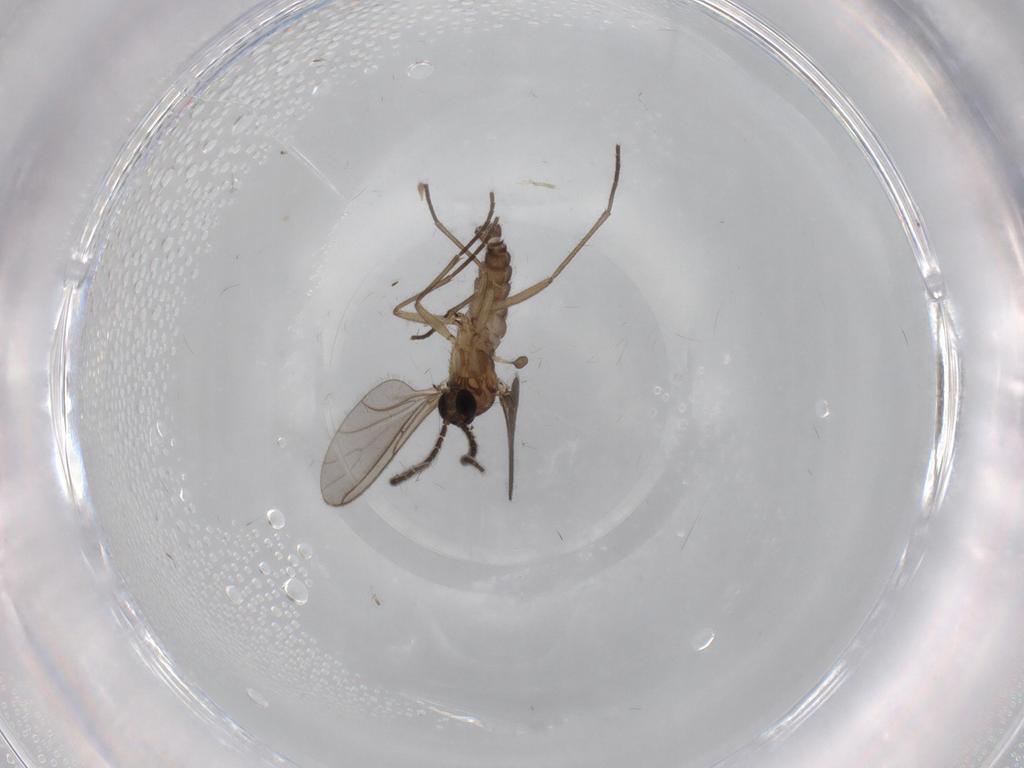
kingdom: Animalia
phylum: Arthropoda
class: Insecta
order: Diptera
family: Sciaridae
